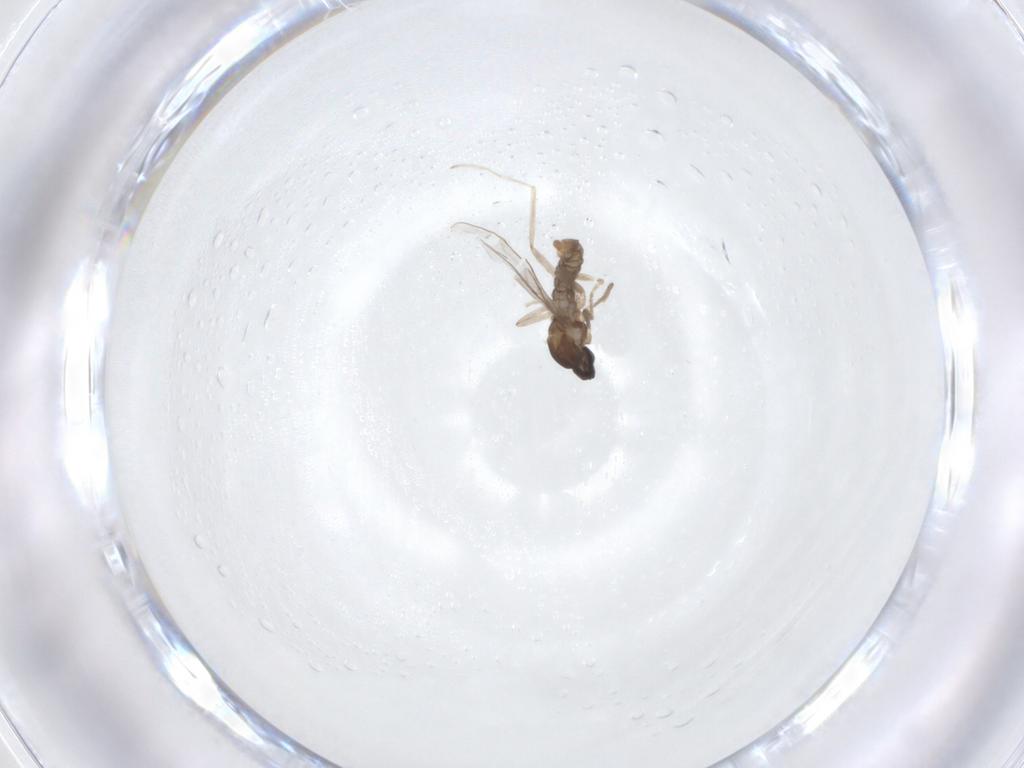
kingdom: Animalia
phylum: Arthropoda
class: Insecta
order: Diptera
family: Cecidomyiidae
